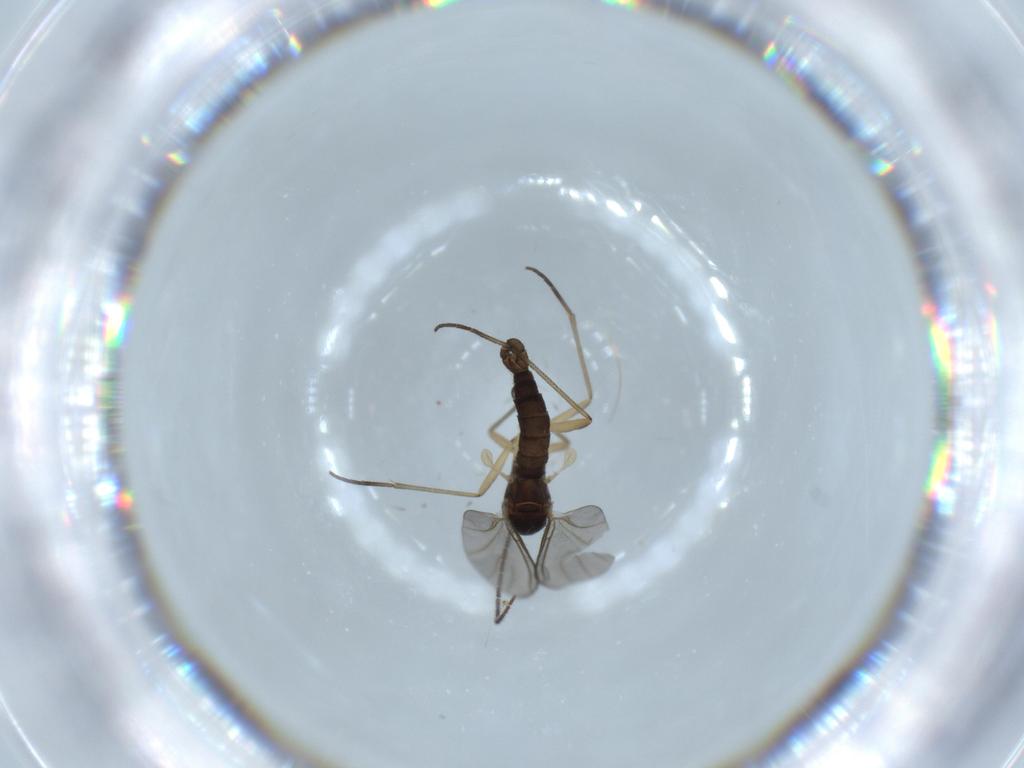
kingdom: Animalia
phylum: Arthropoda
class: Insecta
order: Diptera
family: Sciaridae
